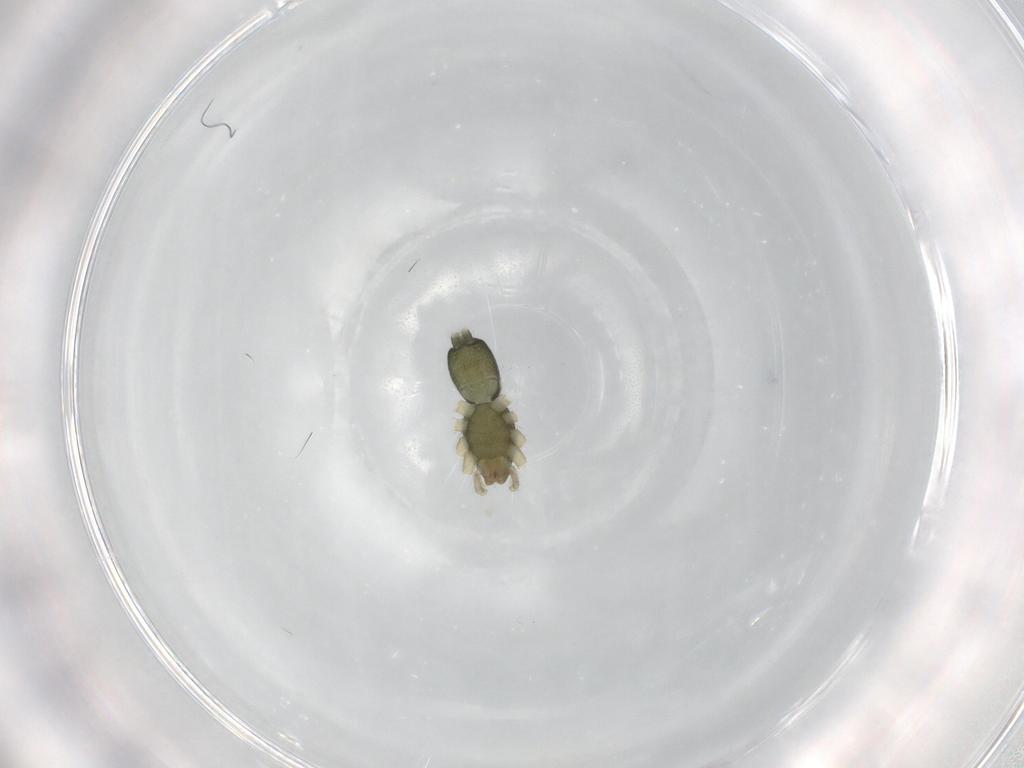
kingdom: Animalia
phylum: Arthropoda
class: Arachnida
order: Araneae
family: Gnaphosidae
